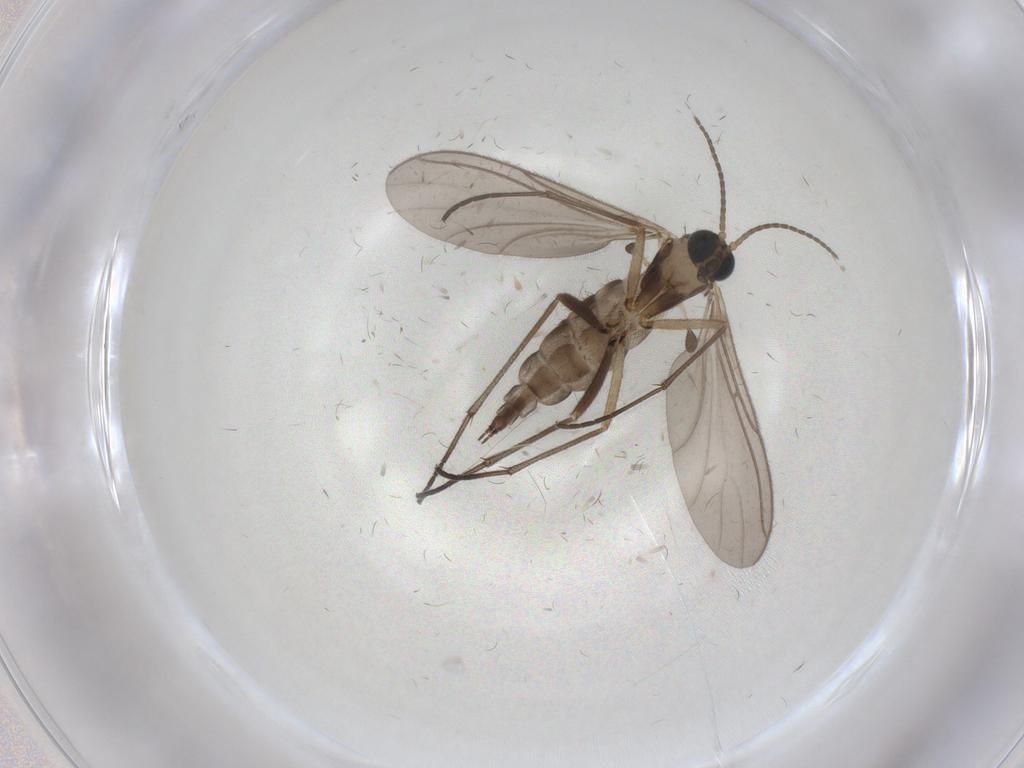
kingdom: Animalia
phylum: Arthropoda
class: Insecta
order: Diptera
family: Sciaridae
